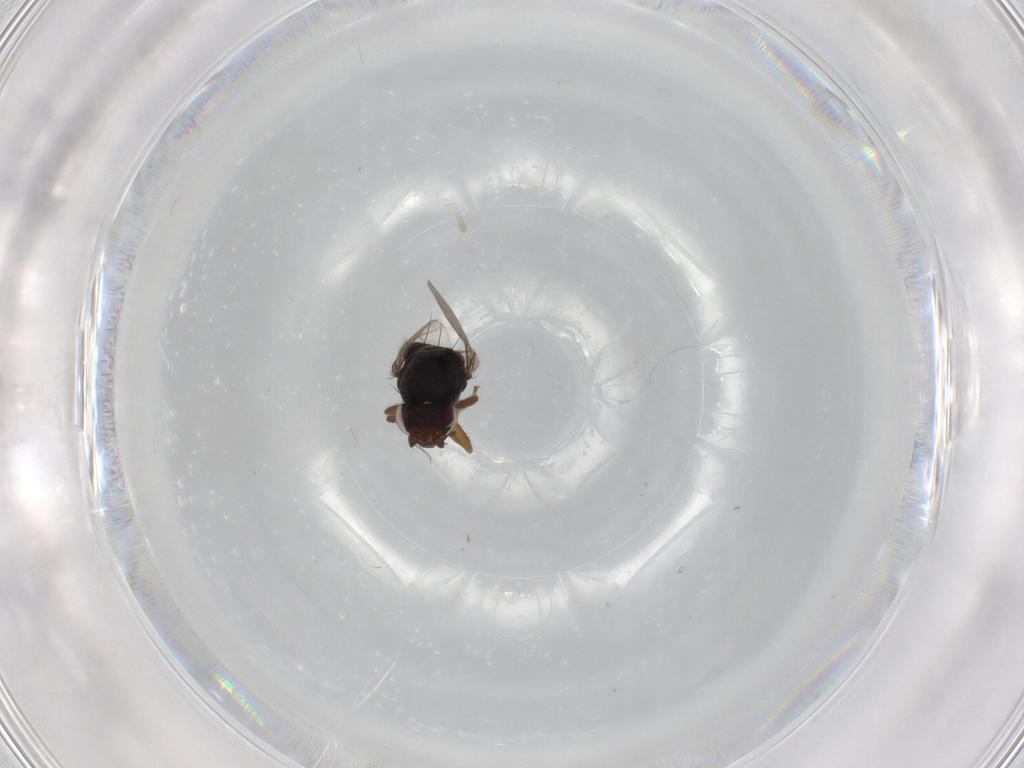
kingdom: Animalia
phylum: Arthropoda
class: Insecta
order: Diptera
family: Sphaeroceridae
